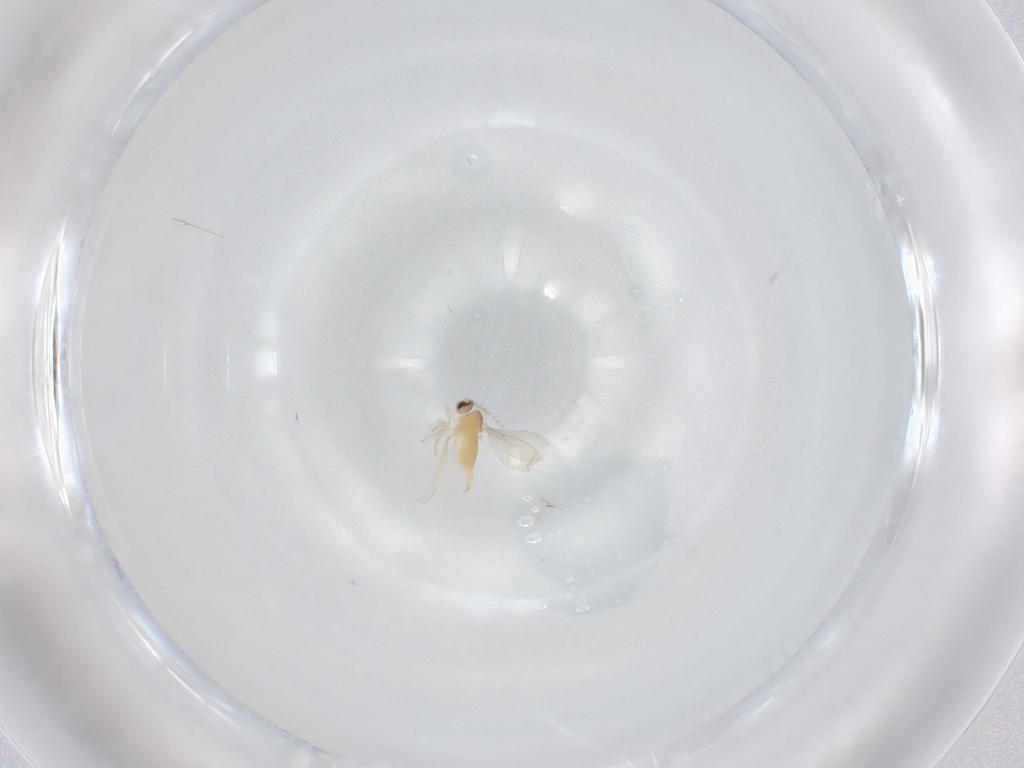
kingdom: Animalia
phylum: Arthropoda
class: Insecta
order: Diptera
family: Cecidomyiidae
